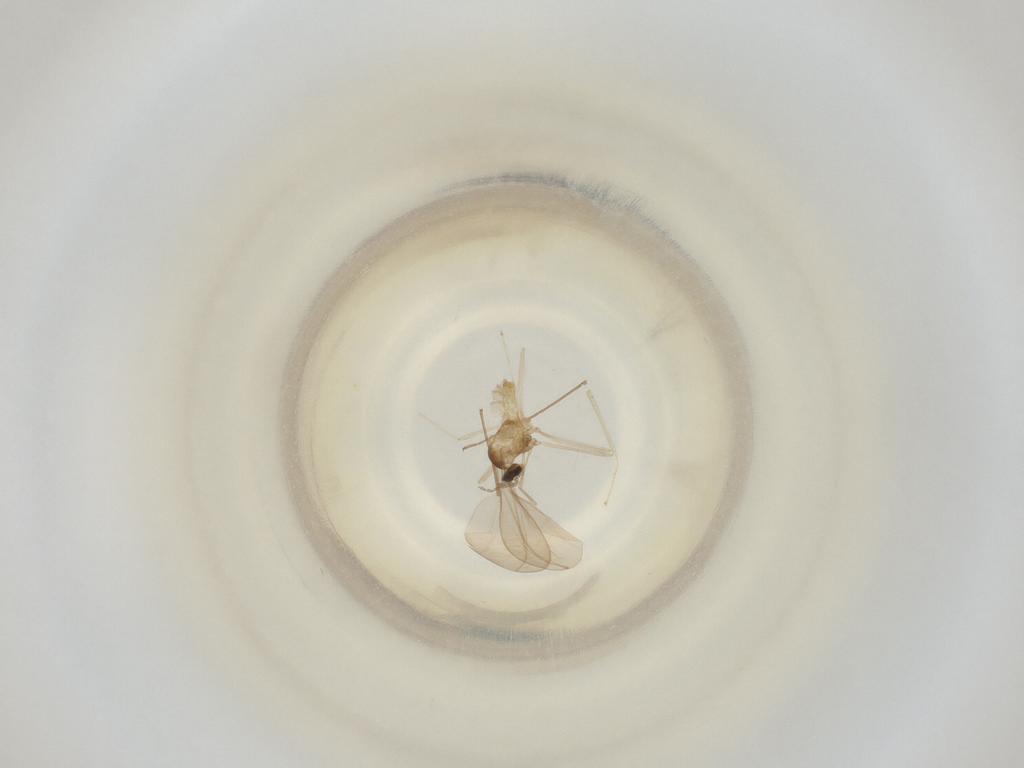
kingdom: Animalia
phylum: Arthropoda
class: Insecta
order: Diptera
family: Cecidomyiidae
